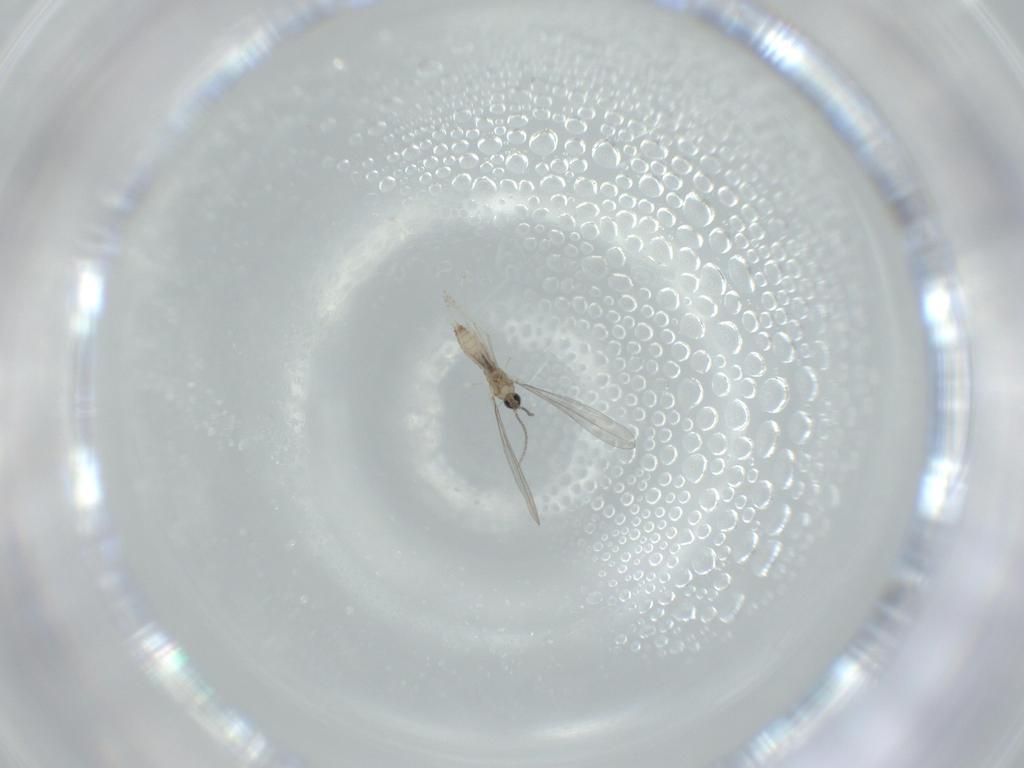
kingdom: Animalia
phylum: Arthropoda
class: Insecta
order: Diptera
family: Cecidomyiidae
